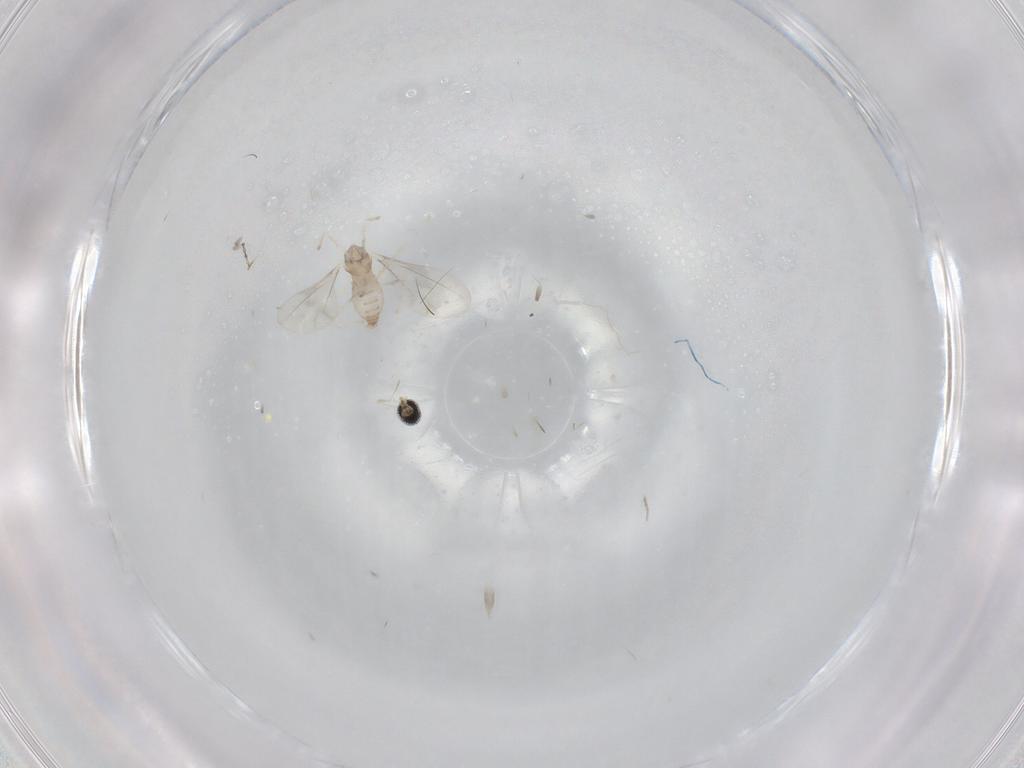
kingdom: Animalia
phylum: Arthropoda
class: Insecta
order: Diptera
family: Cecidomyiidae
